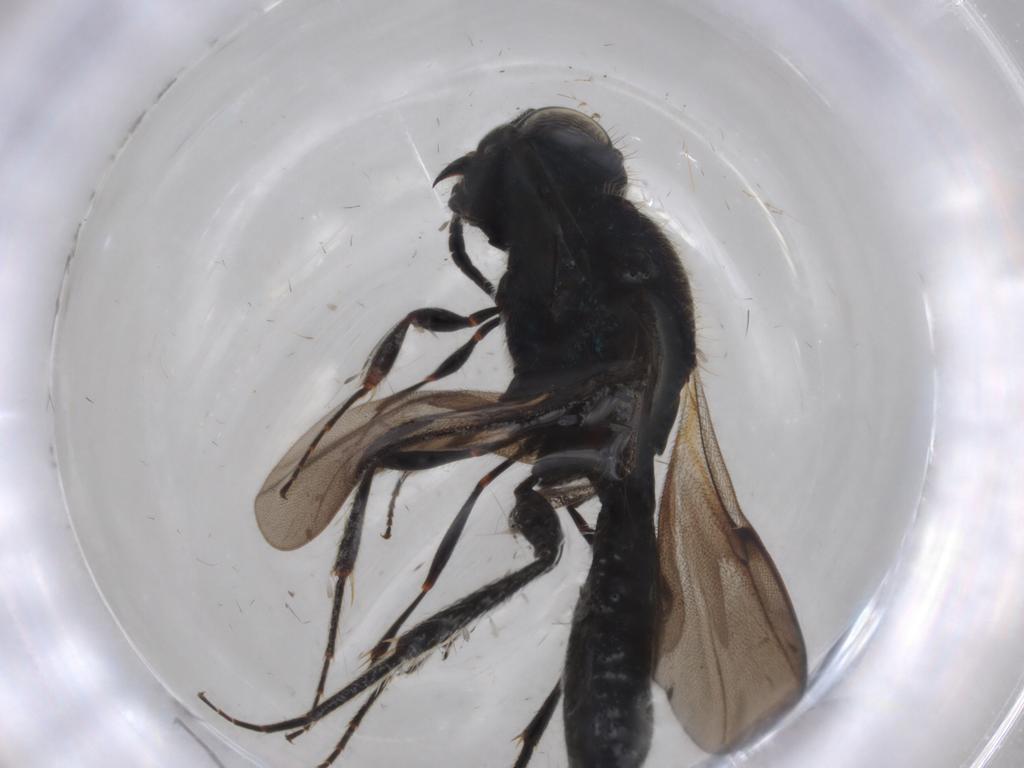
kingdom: Animalia
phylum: Arthropoda
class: Insecta
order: Hymenoptera
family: Scelionidae
